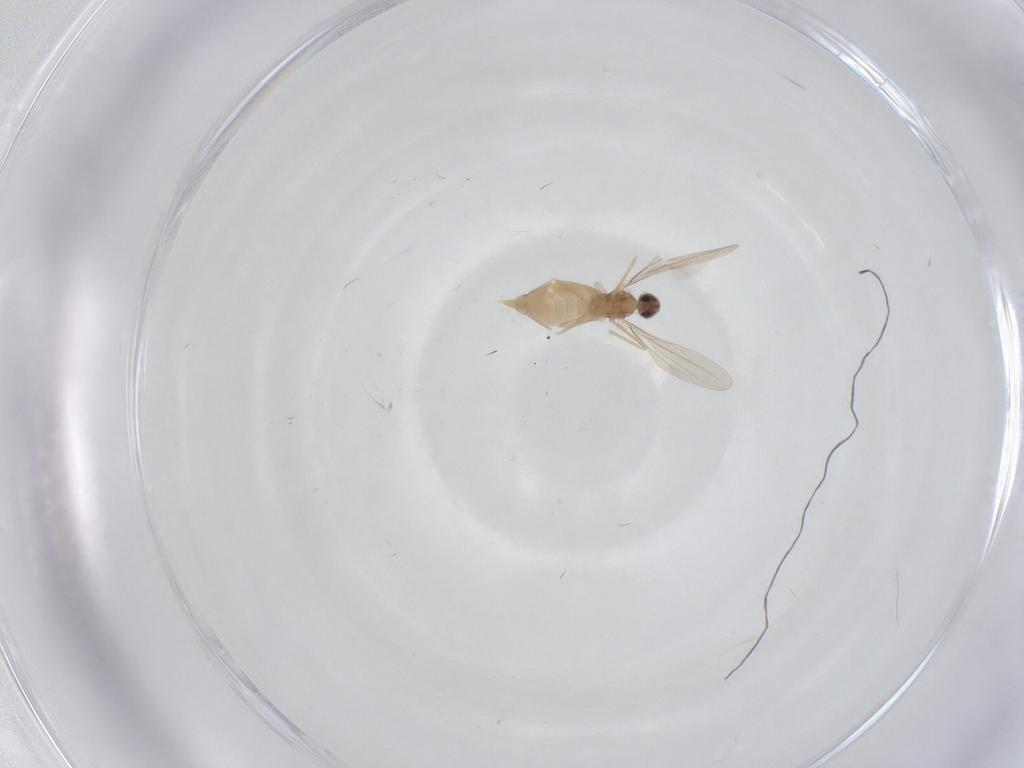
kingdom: Animalia
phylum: Arthropoda
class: Insecta
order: Diptera
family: Cecidomyiidae
